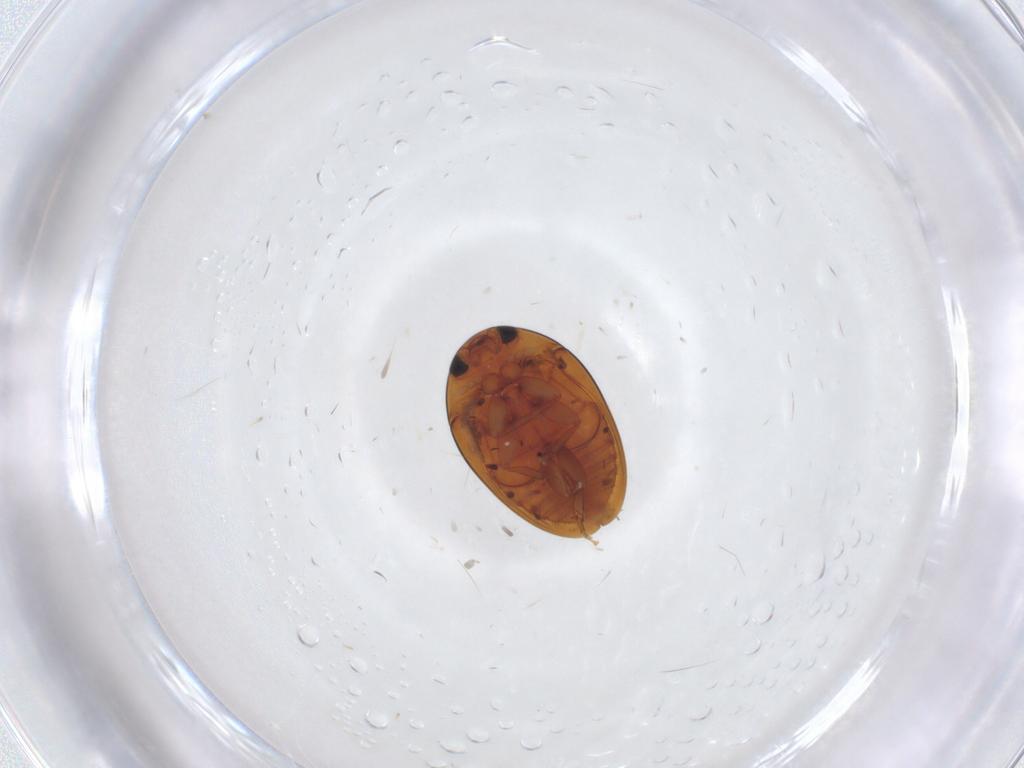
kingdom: Animalia
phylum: Arthropoda
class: Insecta
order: Coleoptera
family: Phalacridae
